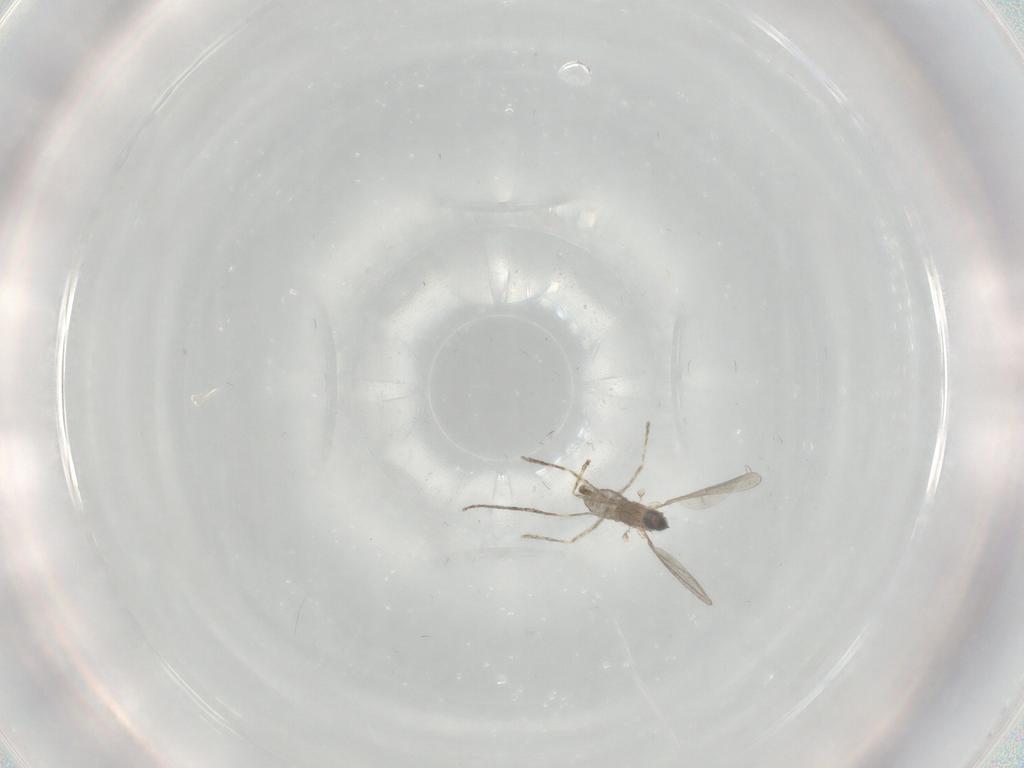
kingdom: Animalia
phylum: Arthropoda
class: Insecta
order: Diptera
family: Cecidomyiidae
